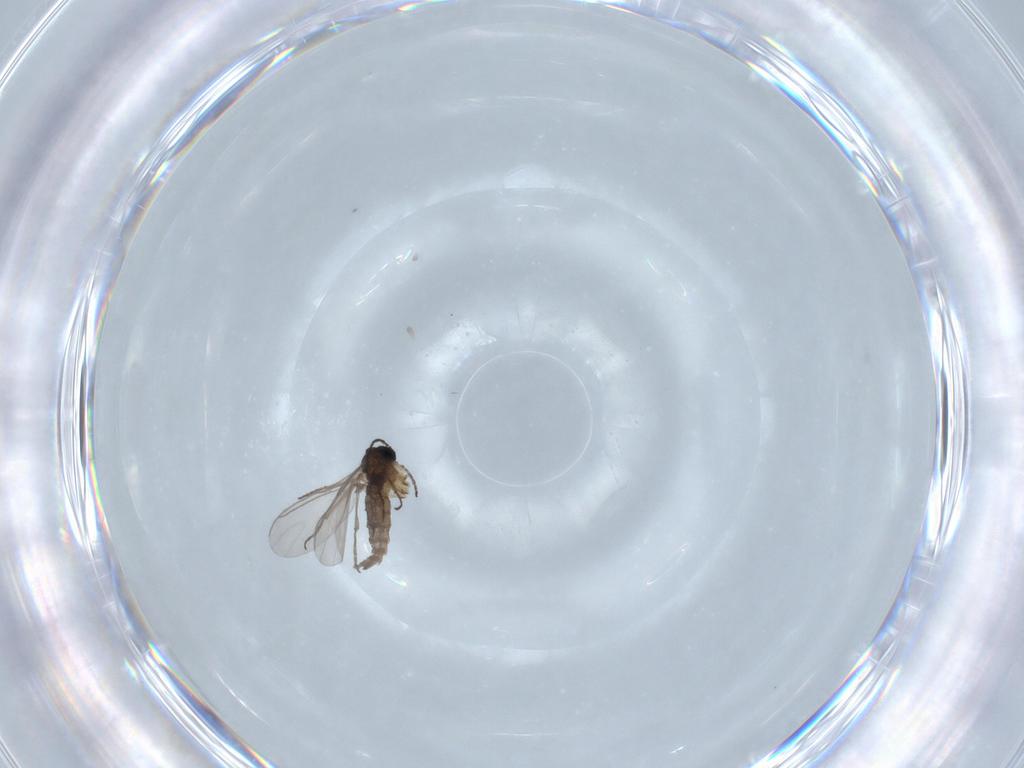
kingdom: Animalia
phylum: Arthropoda
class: Insecta
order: Diptera
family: Sciaridae
